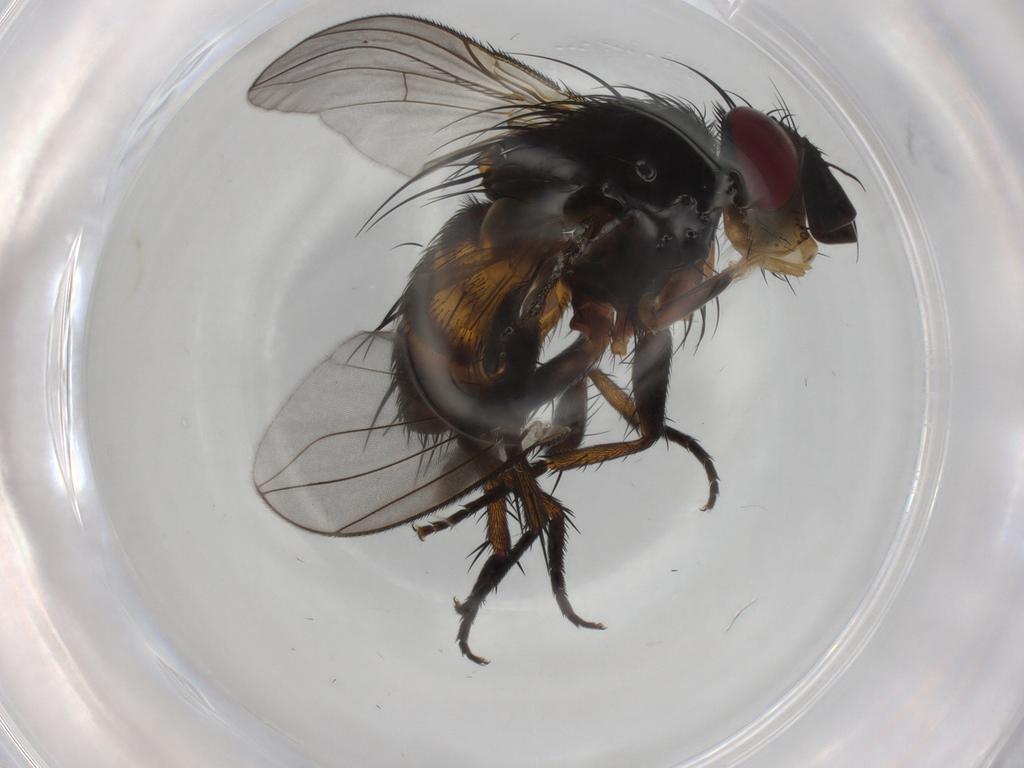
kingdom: Animalia
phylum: Arthropoda
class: Insecta
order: Diptera
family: Tachinidae
